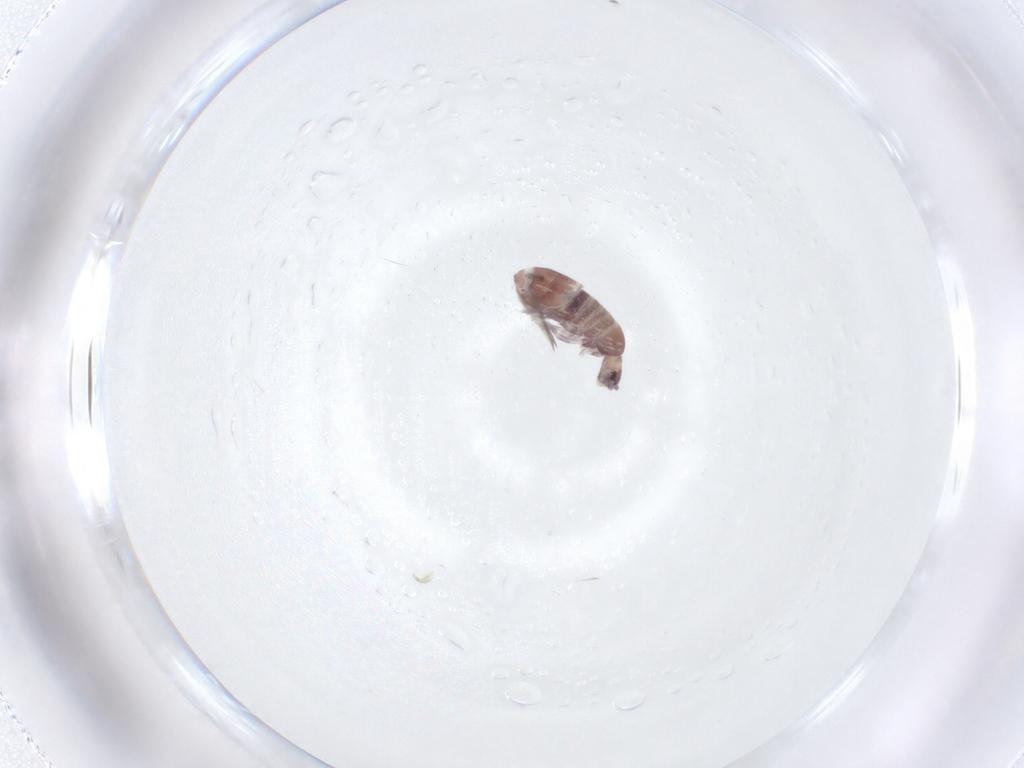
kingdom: Animalia
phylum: Arthropoda
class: Collembola
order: Entomobryomorpha
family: Entomobryidae
